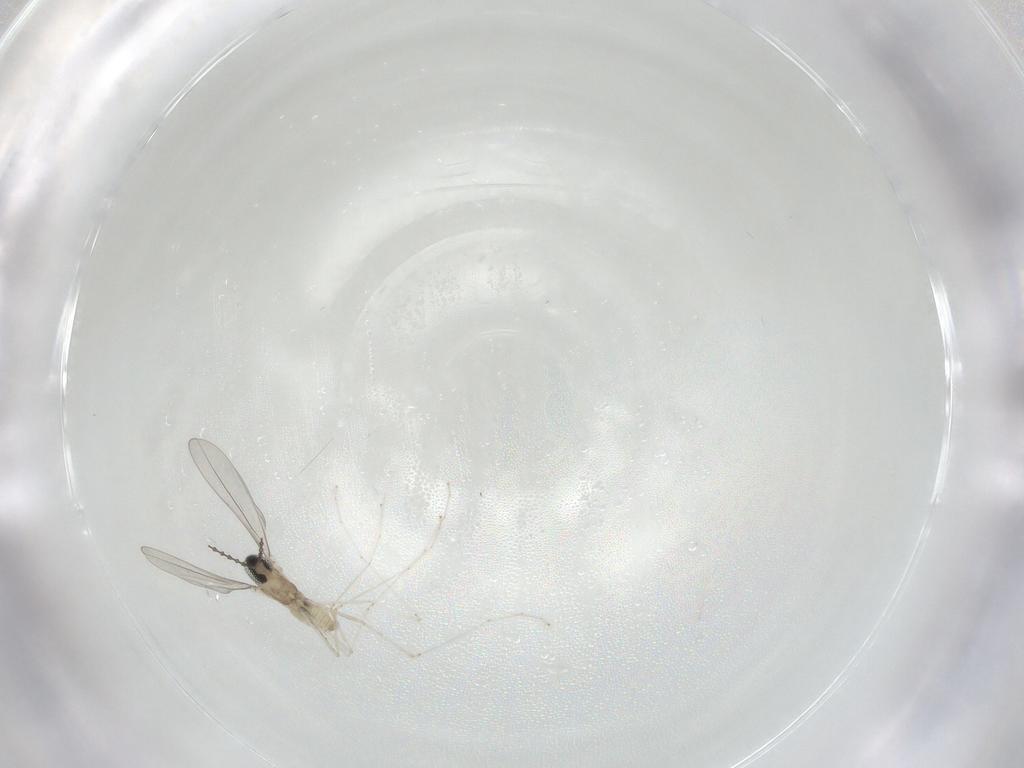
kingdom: Animalia
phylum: Arthropoda
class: Insecta
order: Diptera
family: Cecidomyiidae
